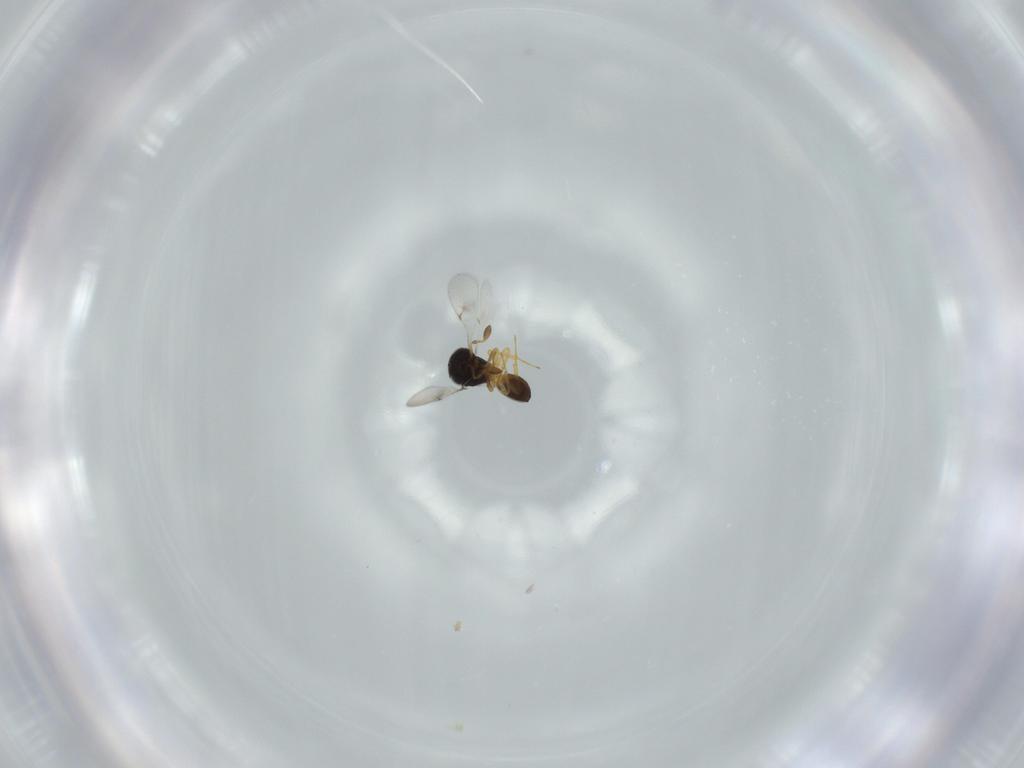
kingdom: Animalia
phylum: Arthropoda
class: Insecta
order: Hymenoptera
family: Scelionidae
